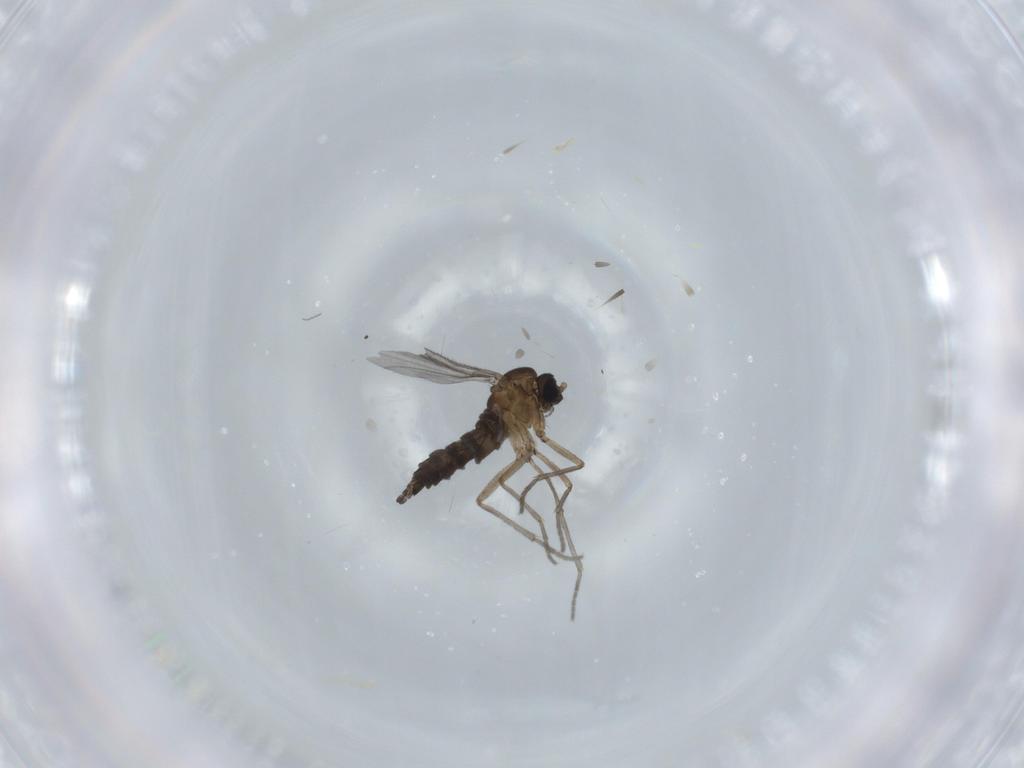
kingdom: Animalia
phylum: Arthropoda
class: Insecta
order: Diptera
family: Sciaridae
